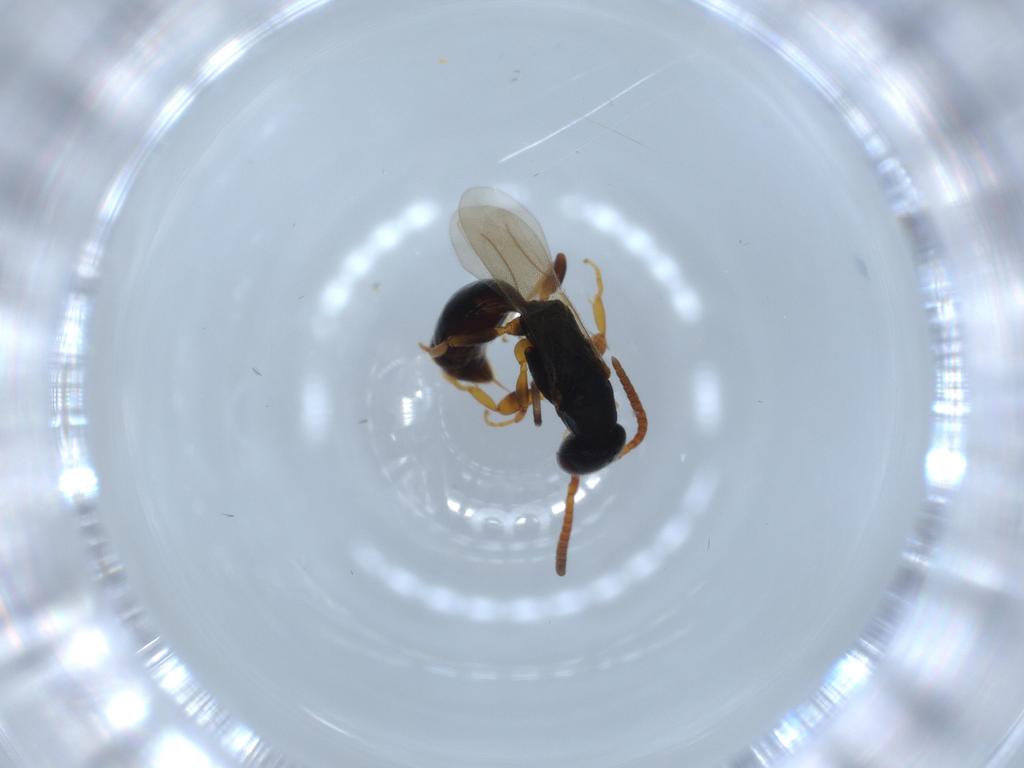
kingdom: Animalia
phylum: Arthropoda
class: Insecta
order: Hymenoptera
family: Bethylidae
